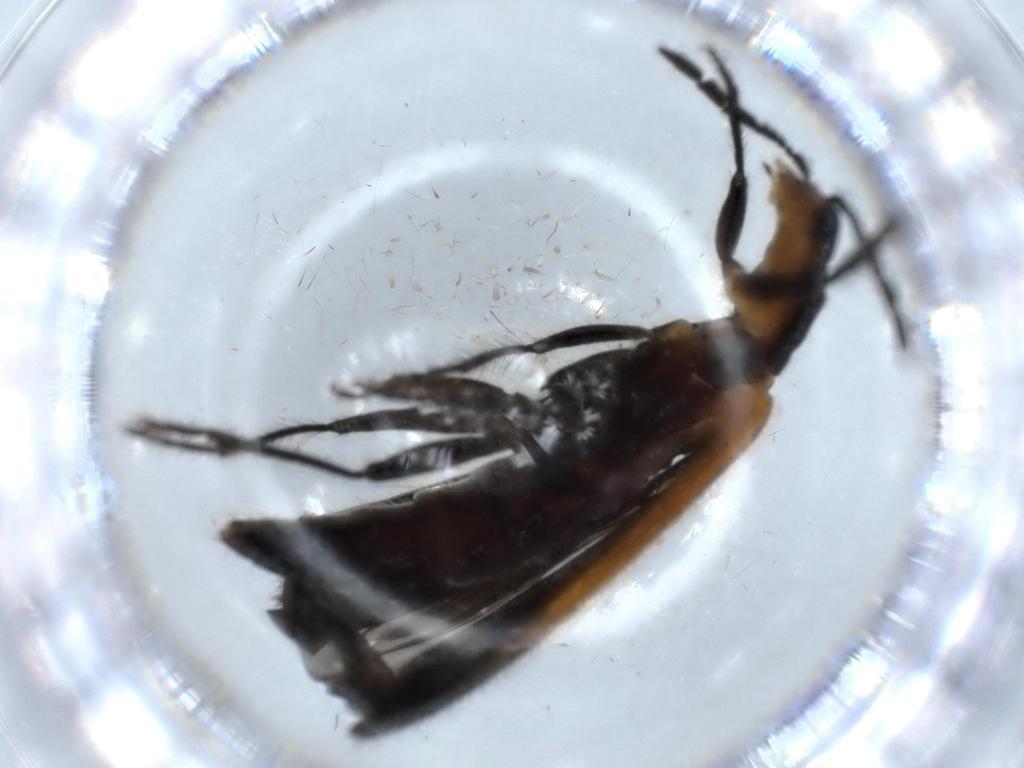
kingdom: Animalia
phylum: Arthropoda
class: Insecta
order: Coleoptera
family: Cleridae
